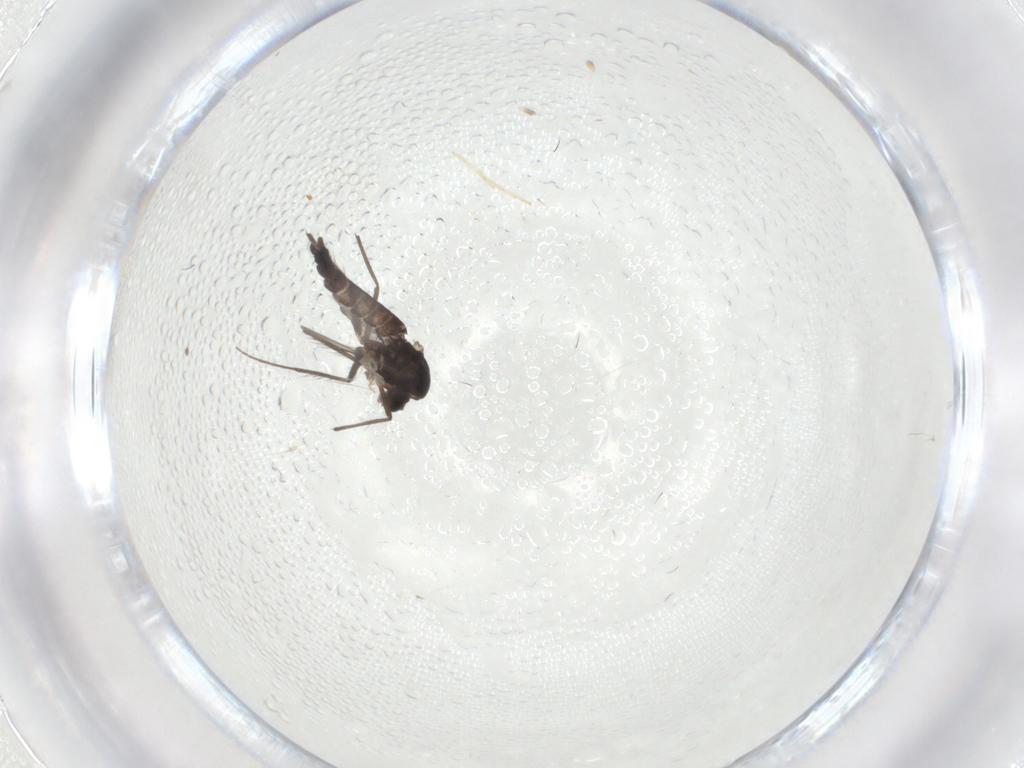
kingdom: Animalia
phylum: Arthropoda
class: Insecta
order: Diptera
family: Chironomidae
